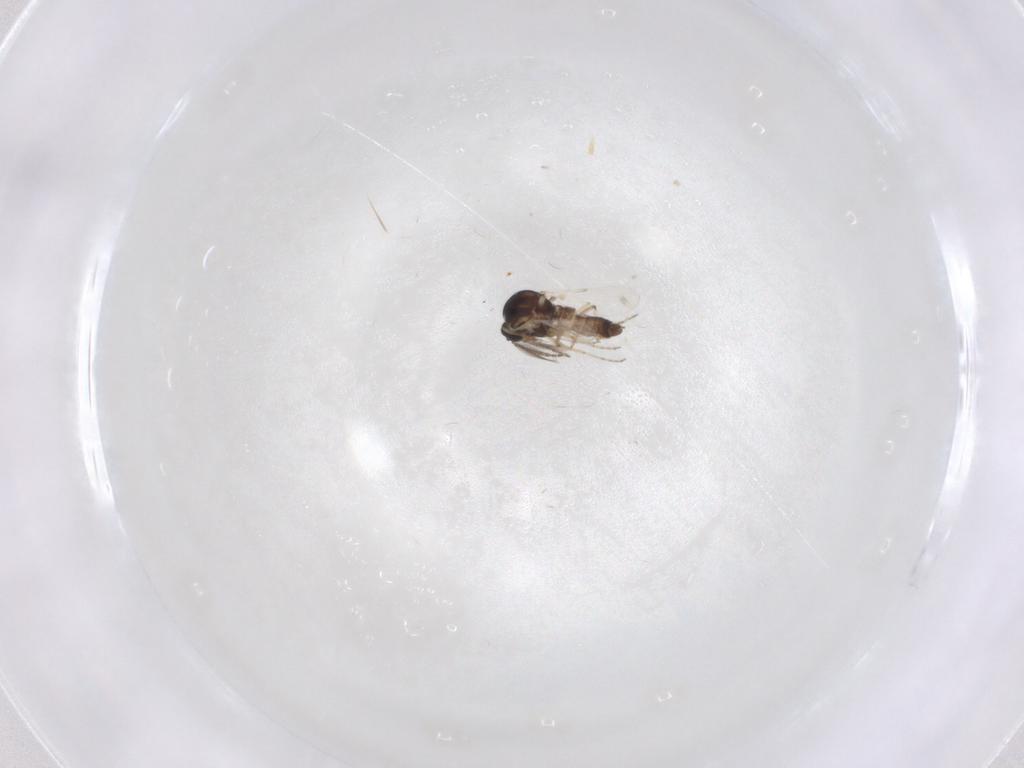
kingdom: Animalia
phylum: Arthropoda
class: Insecta
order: Diptera
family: Ceratopogonidae
